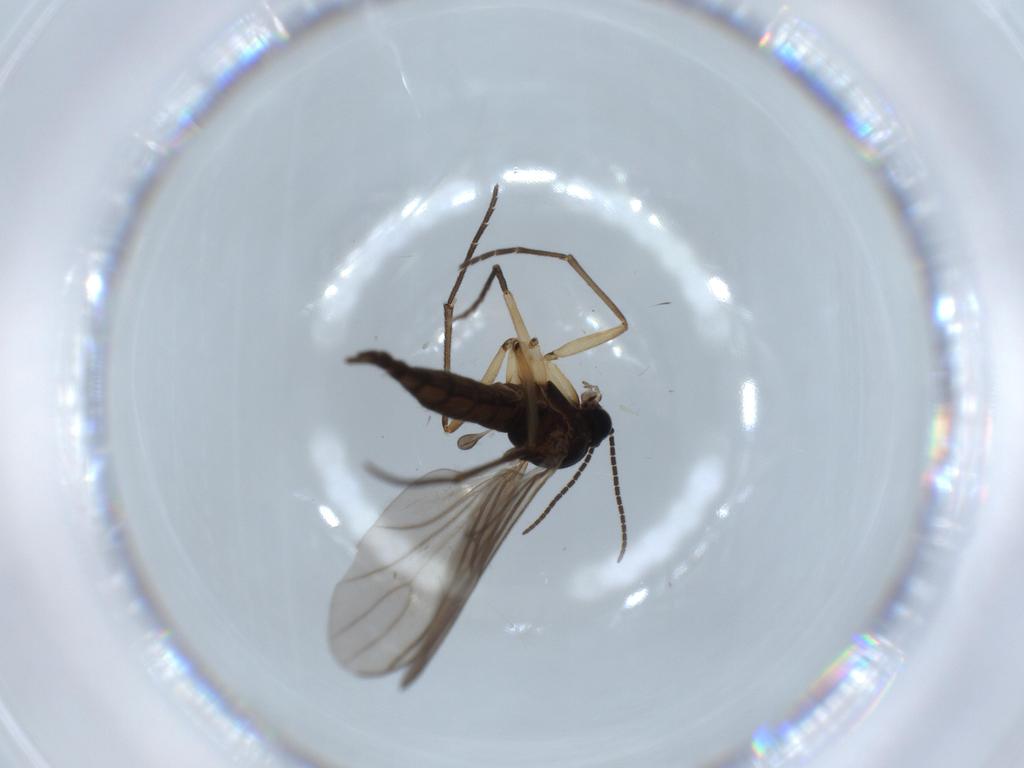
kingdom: Animalia
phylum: Arthropoda
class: Insecta
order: Diptera
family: Sciaridae
